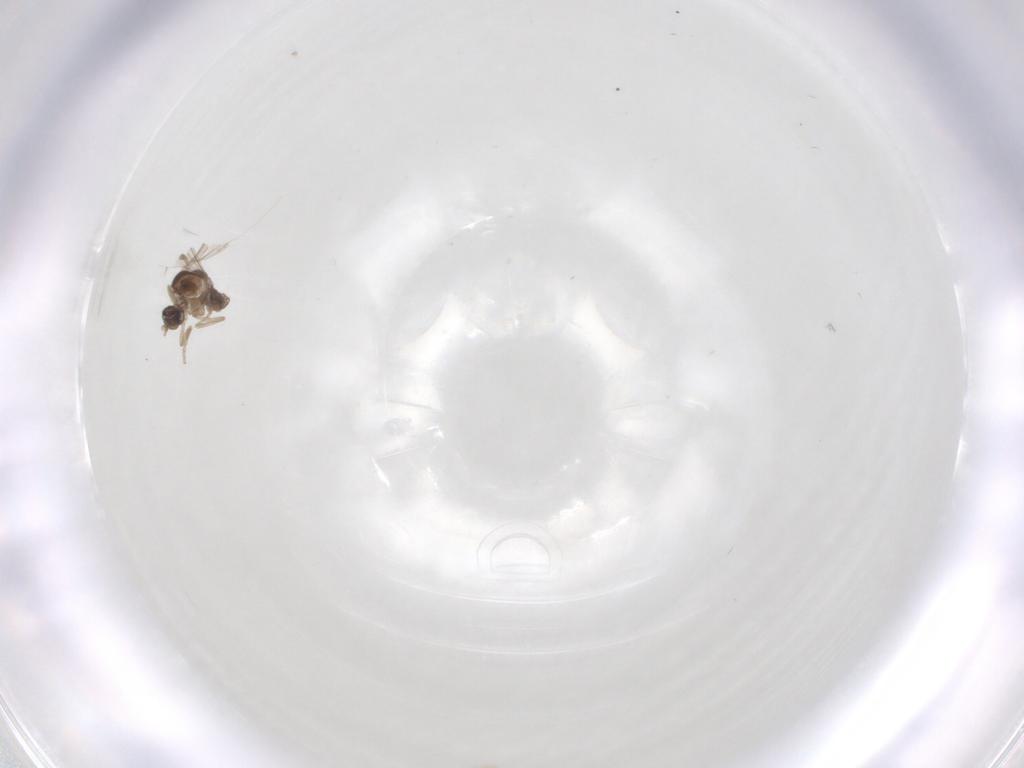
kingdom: Animalia
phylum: Arthropoda
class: Insecta
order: Diptera
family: Cecidomyiidae
